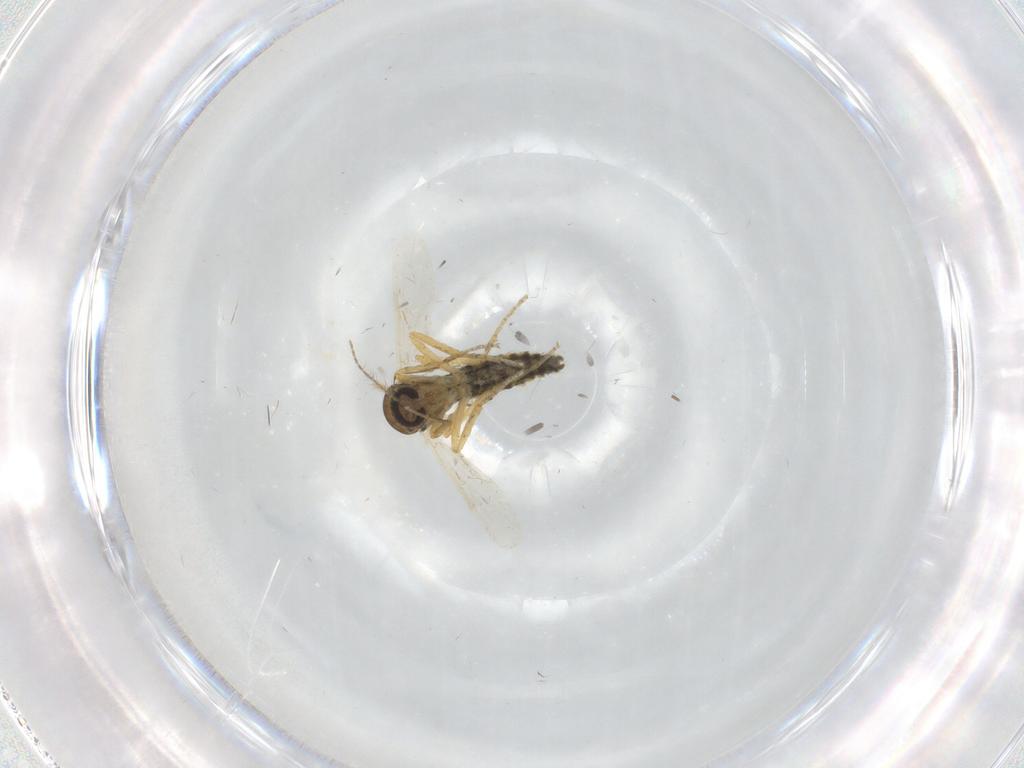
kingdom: Animalia
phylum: Arthropoda
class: Insecta
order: Diptera
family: Ceratopogonidae
